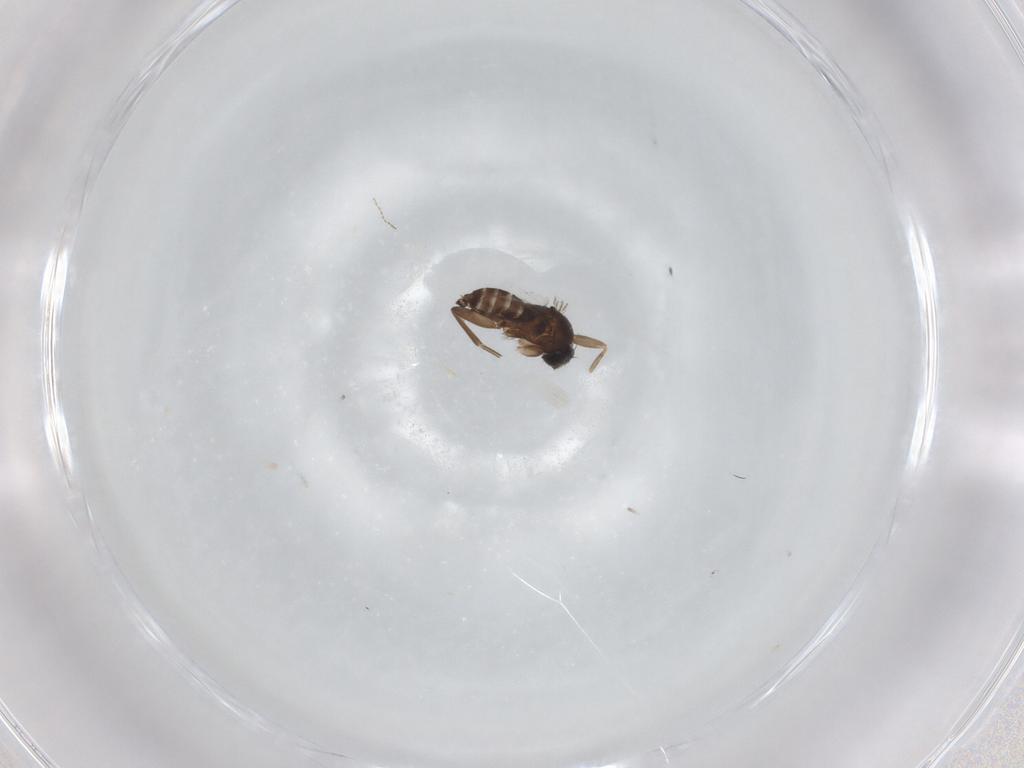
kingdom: Animalia
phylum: Arthropoda
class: Insecta
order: Diptera
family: Phoridae
